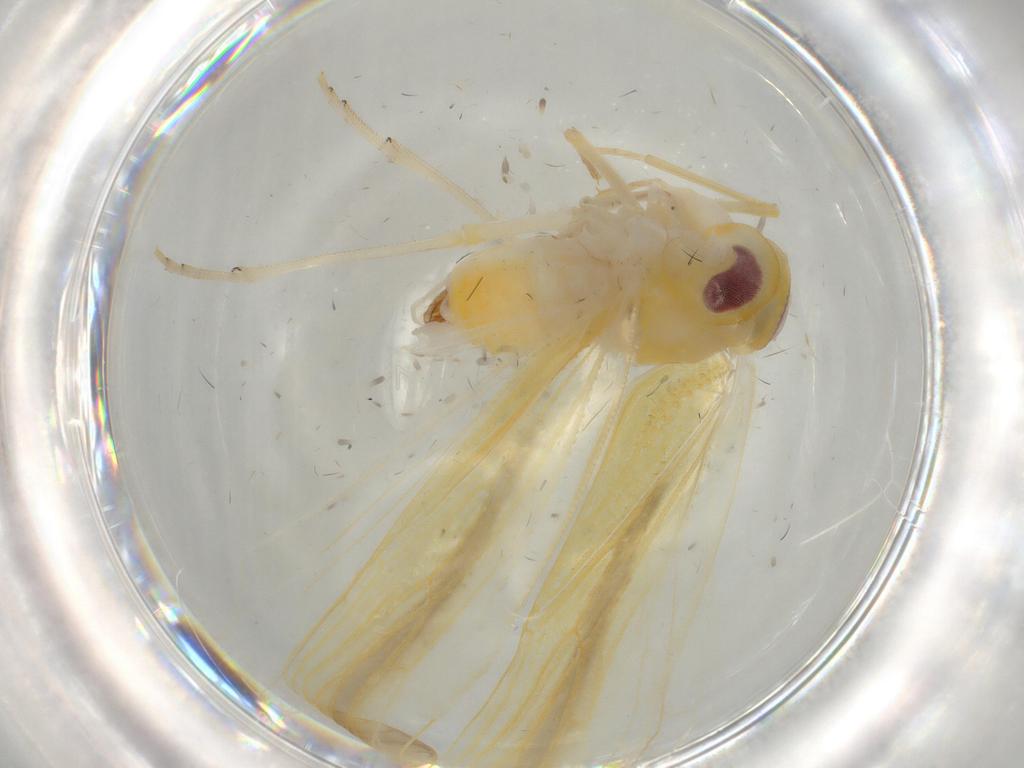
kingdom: Animalia
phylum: Arthropoda
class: Insecta
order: Hemiptera
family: Derbidae
